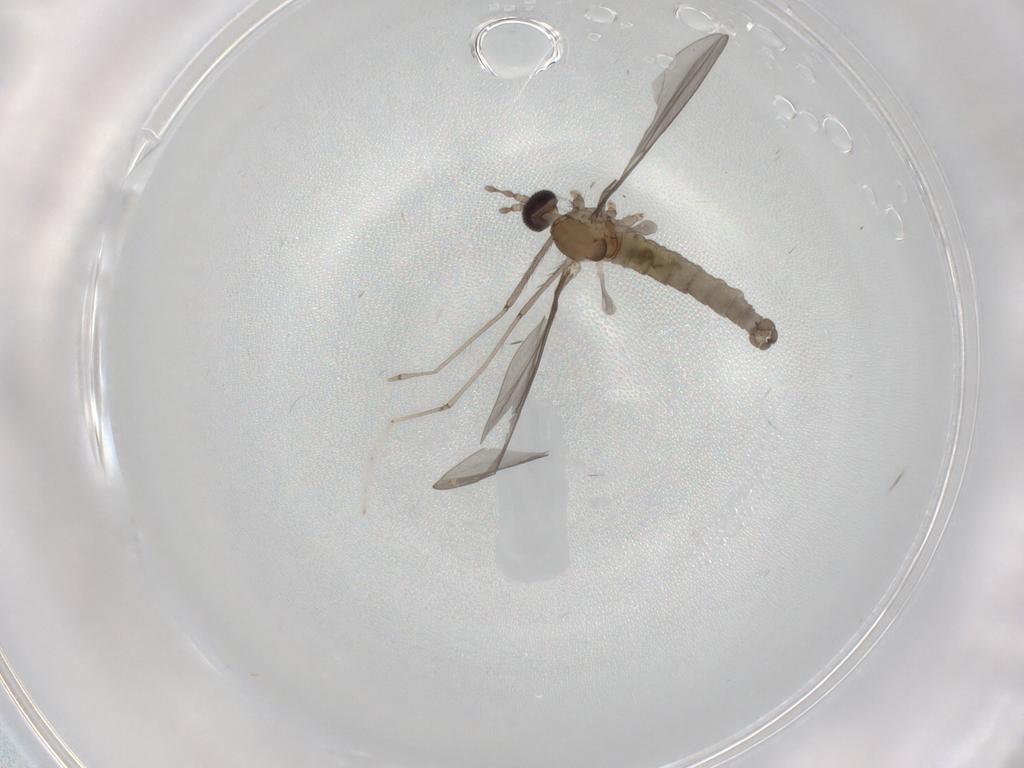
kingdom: Animalia
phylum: Arthropoda
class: Insecta
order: Diptera
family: Cecidomyiidae
